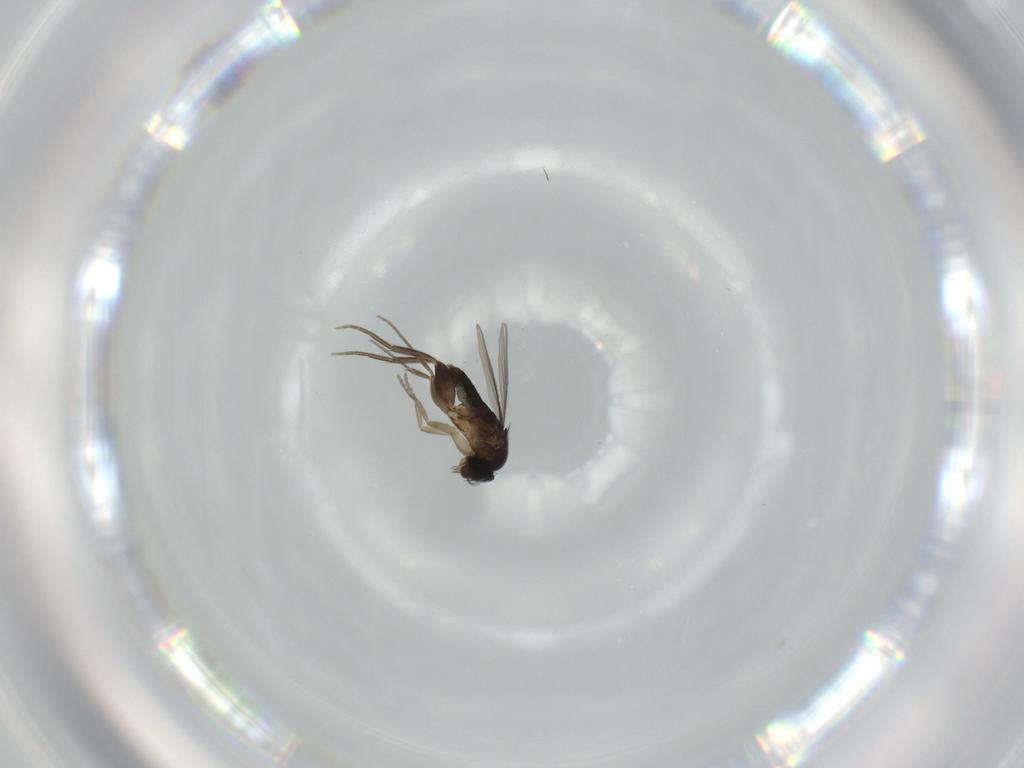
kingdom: Animalia
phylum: Arthropoda
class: Insecta
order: Diptera
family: Phoridae
